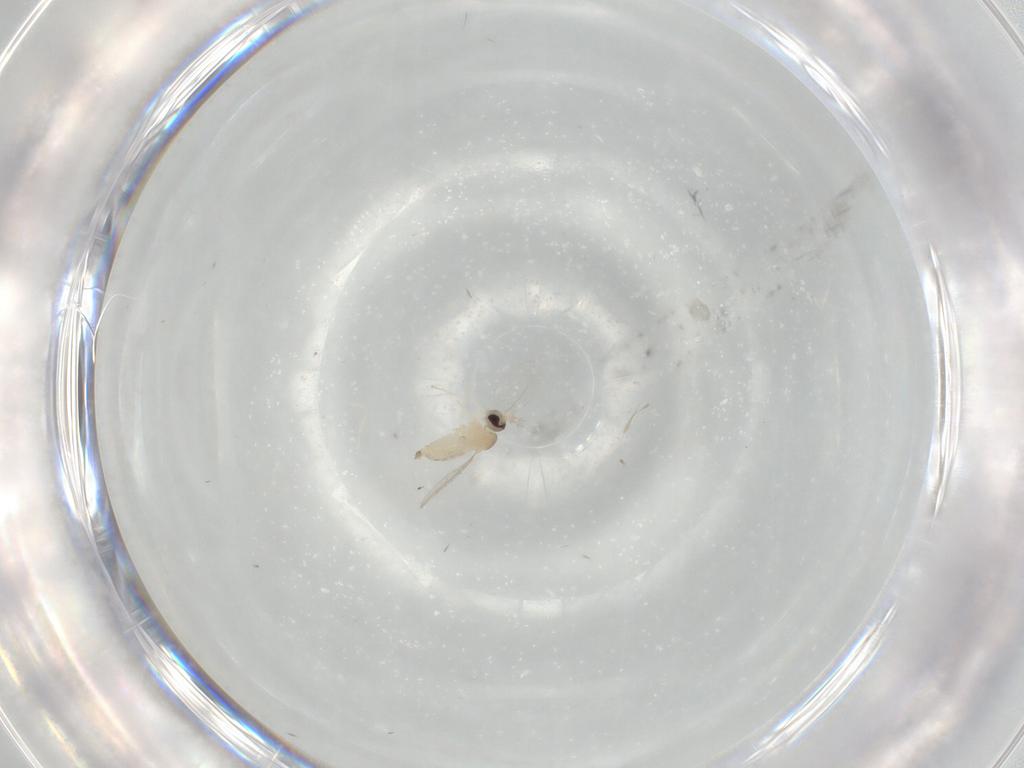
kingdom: Animalia
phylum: Arthropoda
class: Insecta
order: Diptera
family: Cecidomyiidae
